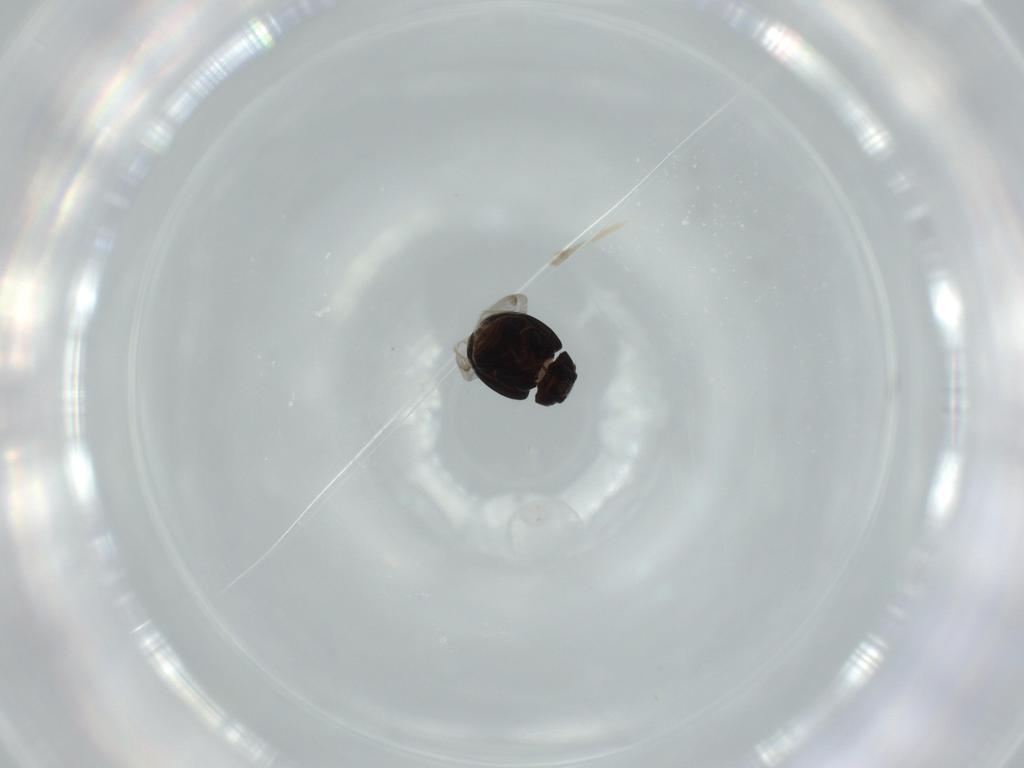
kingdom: Animalia
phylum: Arthropoda
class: Insecta
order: Coleoptera
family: Coccinellidae
